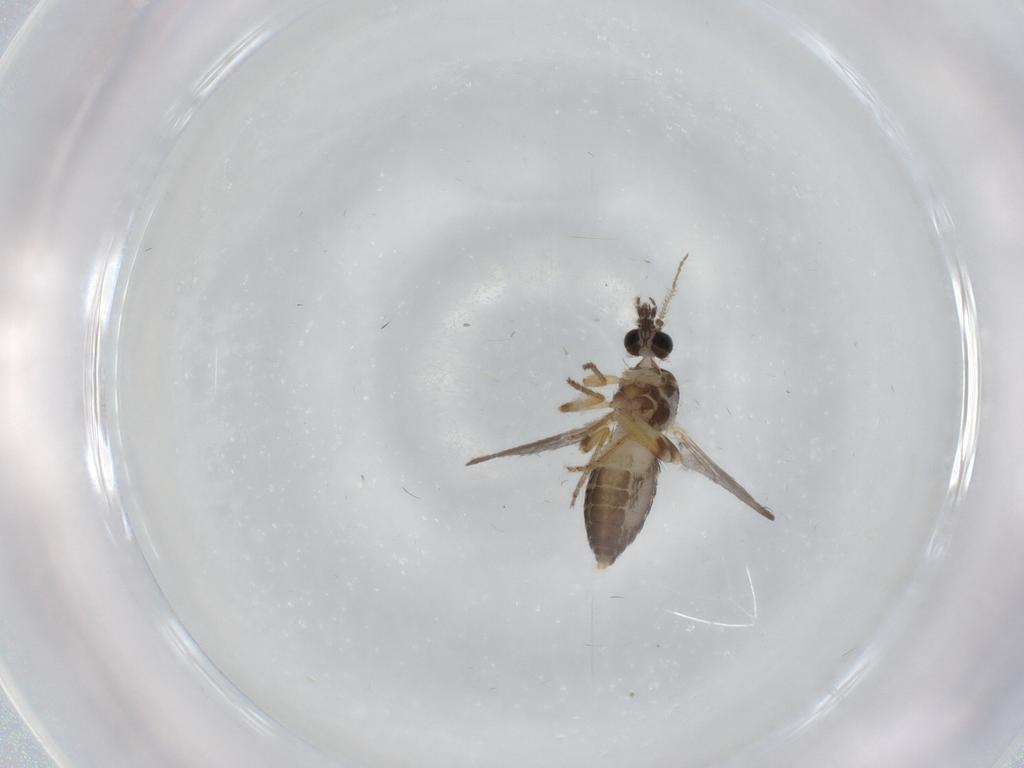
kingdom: Animalia
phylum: Arthropoda
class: Insecta
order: Diptera
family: Ceratopogonidae
